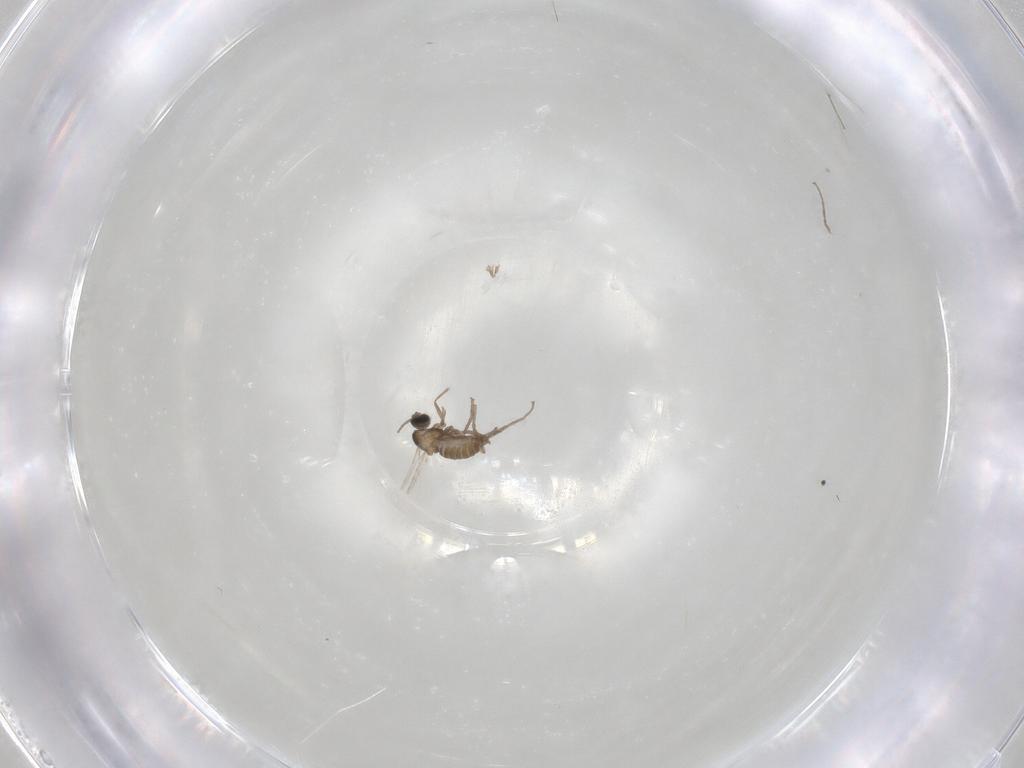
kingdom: Animalia
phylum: Arthropoda
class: Insecta
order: Diptera
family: Cecidomyiidae
